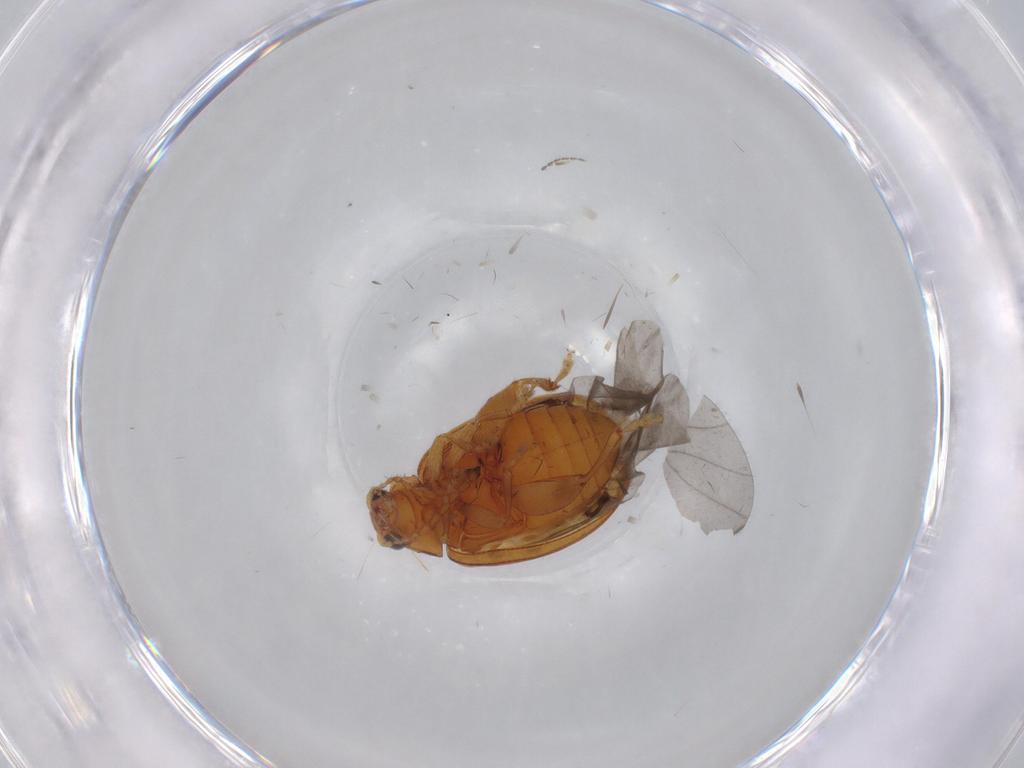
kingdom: Animalia
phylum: Arthropoda
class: Insecta
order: Coleoptera
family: Chrysomelidae
